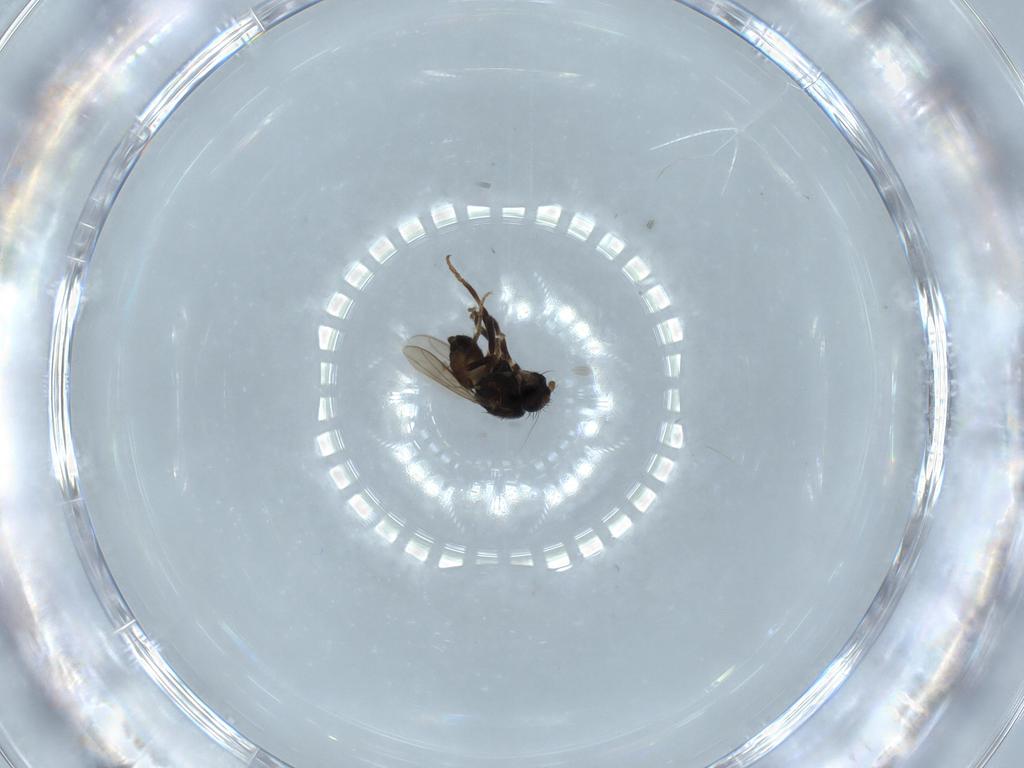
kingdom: Animalia
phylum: Arthropoda
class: Insecta
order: Diptera
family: Sphaeroceridae
